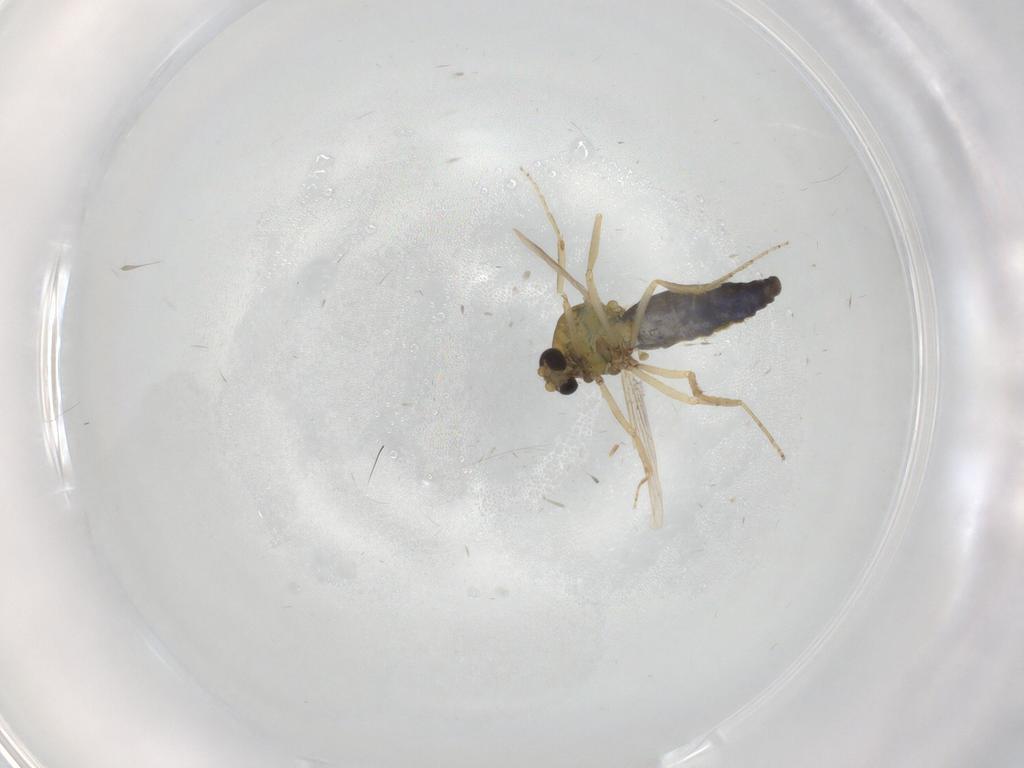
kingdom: Animalia
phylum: Arthropoda
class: Insecta
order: Diptera
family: Ceratopogonidae
